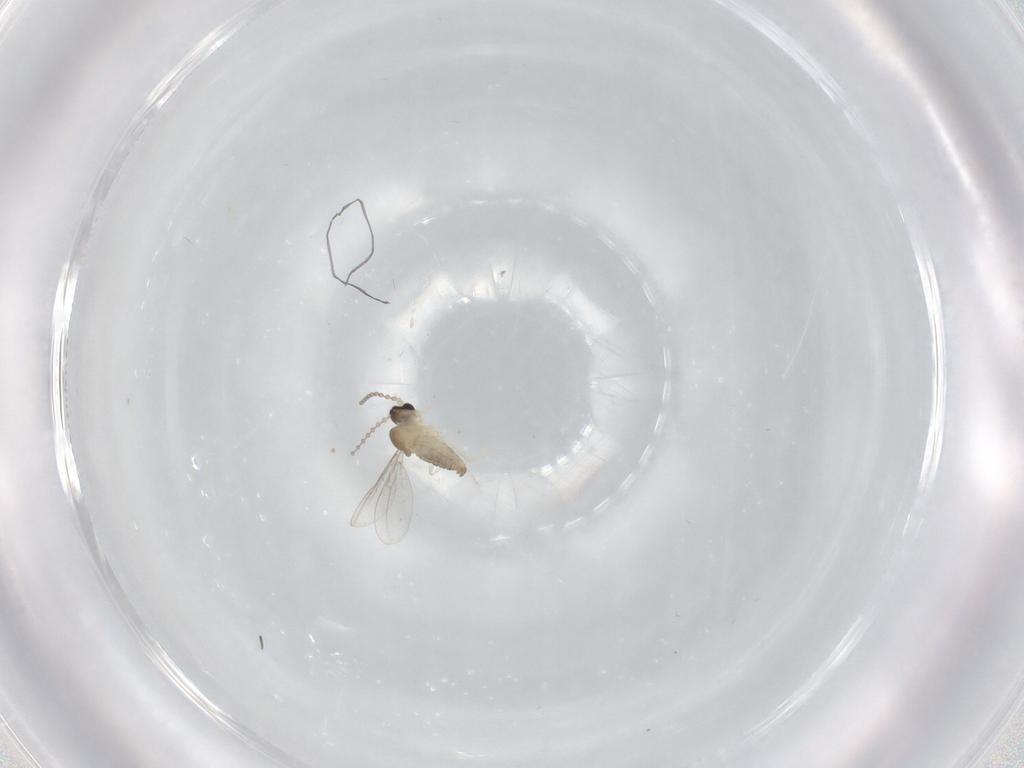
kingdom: Animalia
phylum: Arthropoda
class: Insecta
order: Diptera
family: Cecidomyiidae
